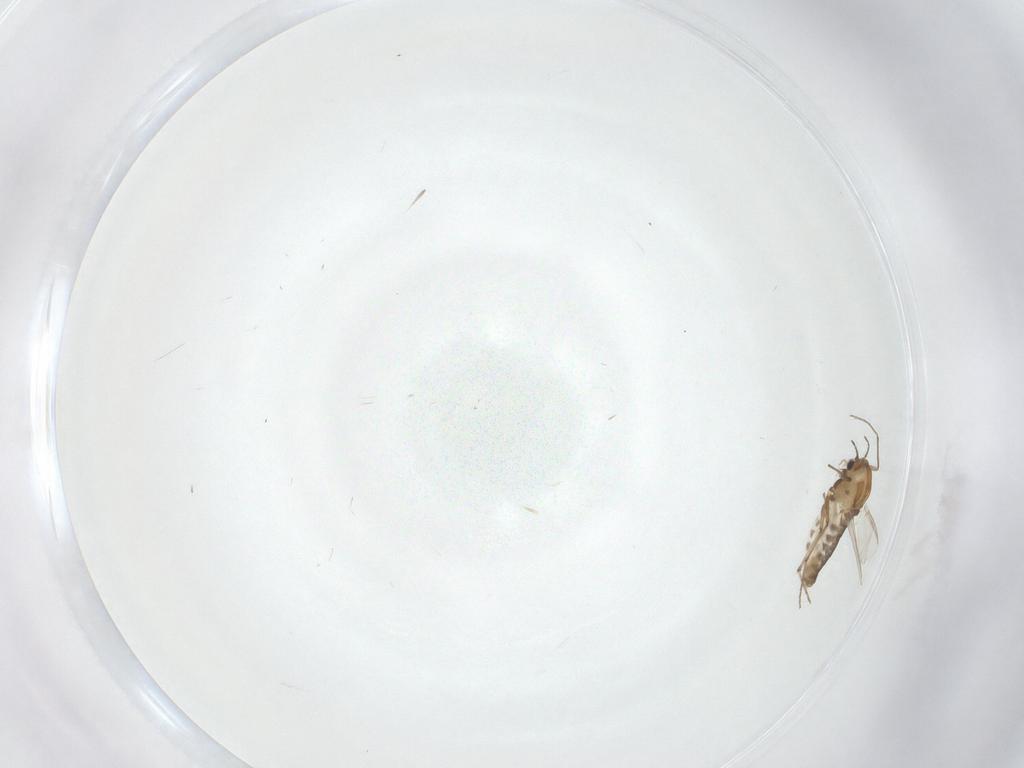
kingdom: Animalia
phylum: Arthropoda
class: Insecta
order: Diptera
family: Chironomidae
